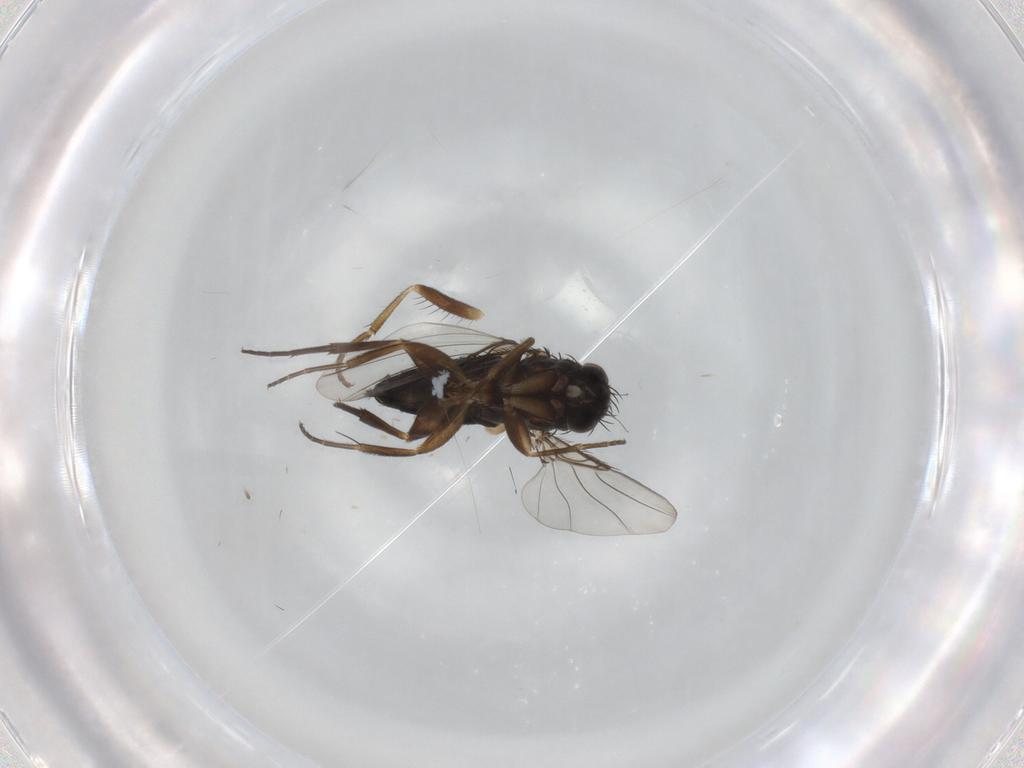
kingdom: Animalia
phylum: Arthropoda
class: Insecta
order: Diptera
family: Phoridae
